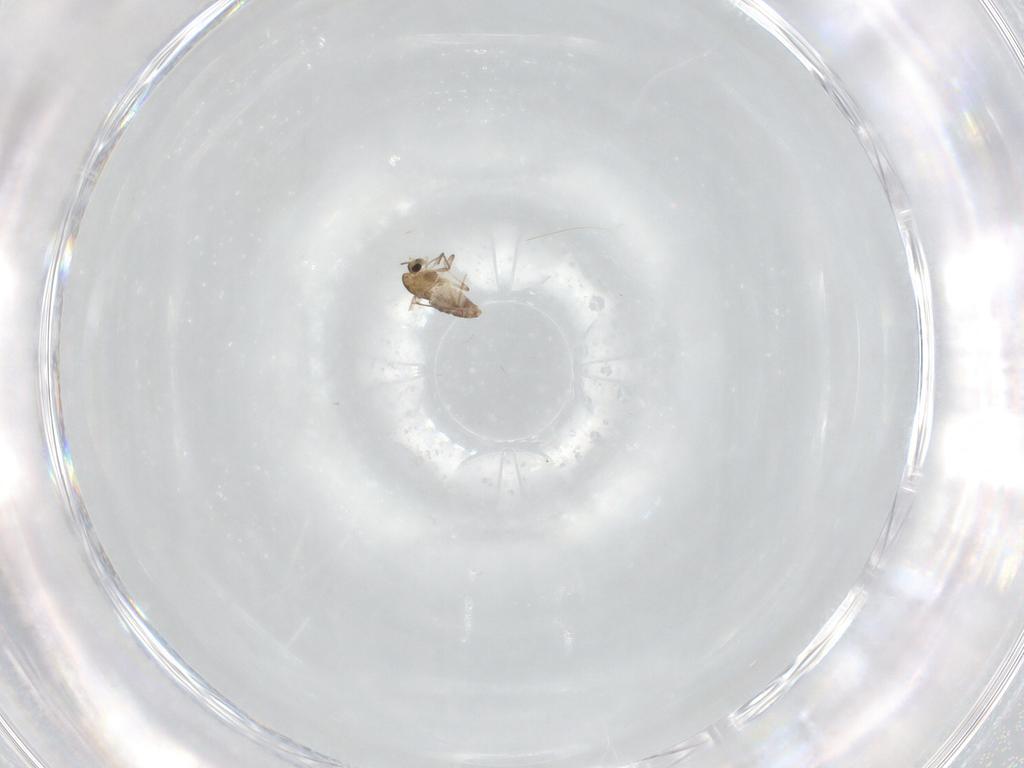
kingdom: Animalia
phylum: Arthropoda
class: Insecta
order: Diptera
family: Chironomidae
